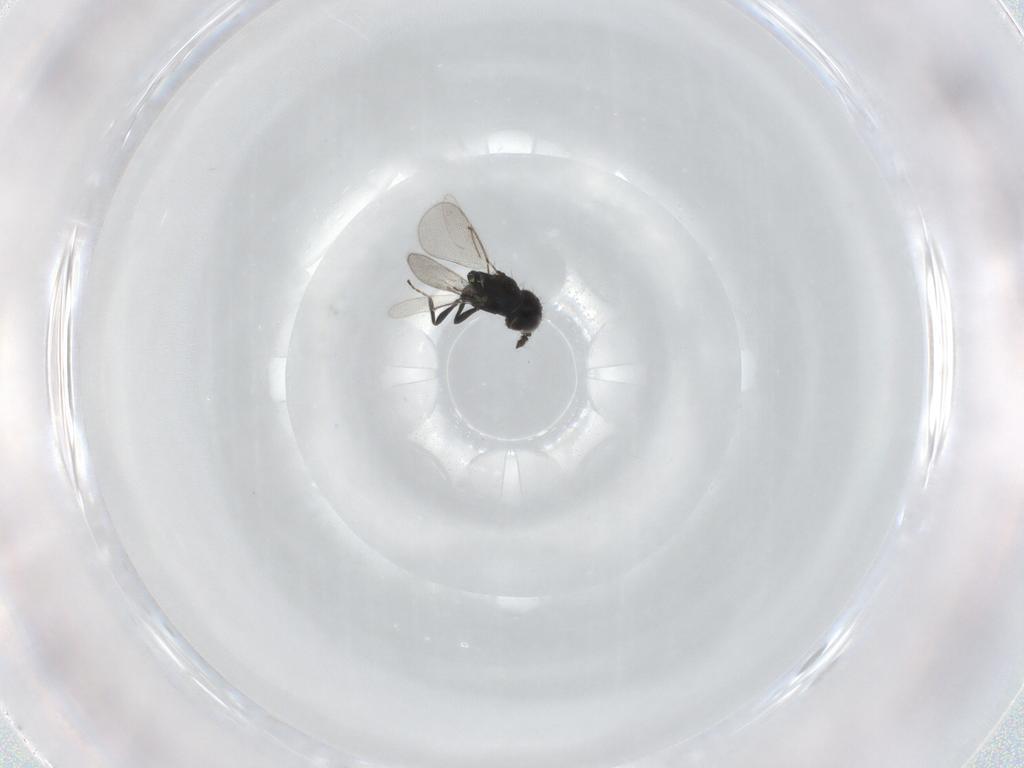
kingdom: Animalia
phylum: Arthropoda
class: Insecta
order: Hymenoptera
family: Eulophidae
